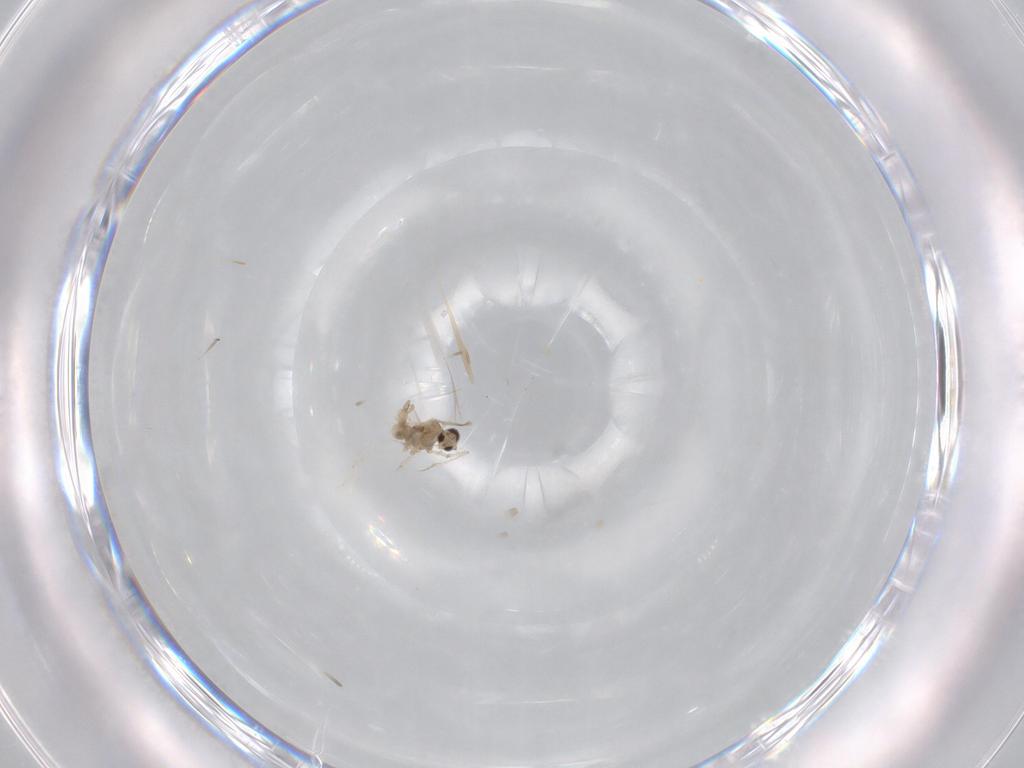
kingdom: Animalia
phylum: Arthropoda
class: Insecta
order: Diptera
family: Cecidomyiidae
